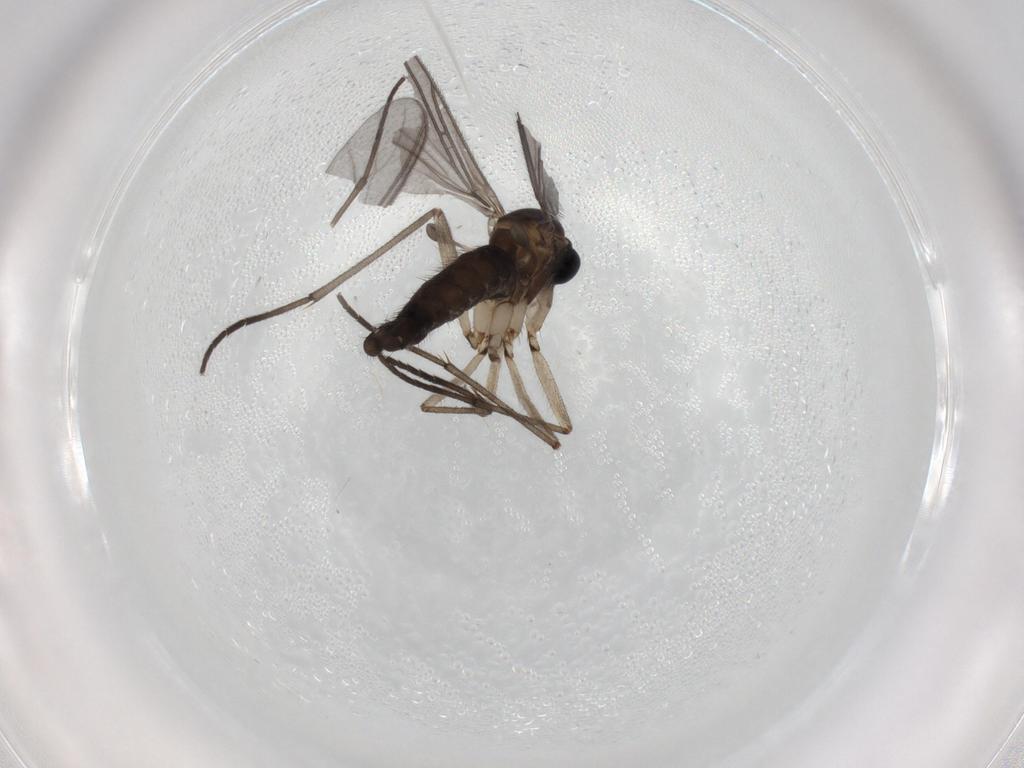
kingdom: Animalia
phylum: Arthropoda
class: Insecta
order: Diptera
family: Sciaridae
